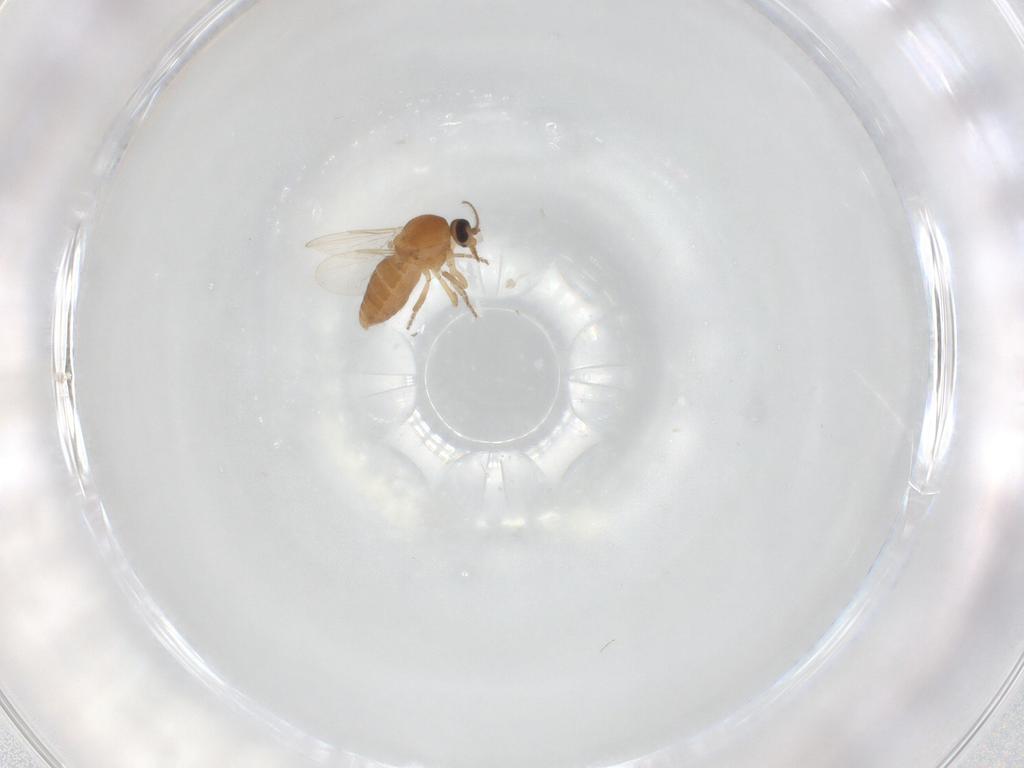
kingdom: Animalia
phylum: Arthropoda
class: Insecta
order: Diptera
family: Ceratopogonidae
